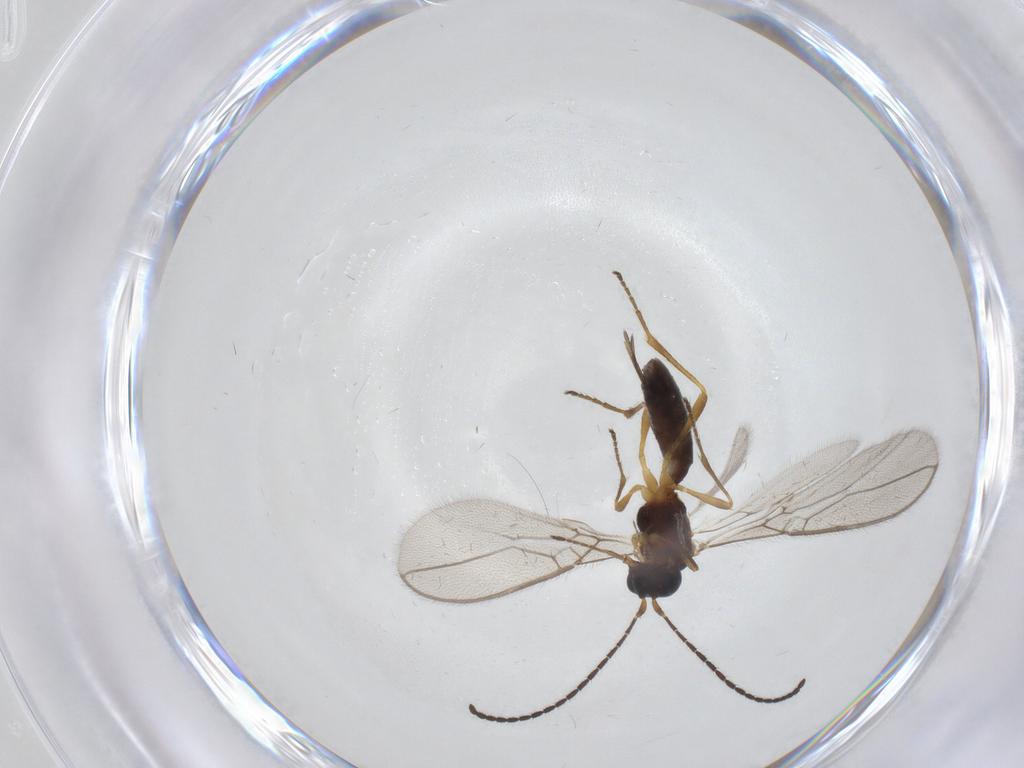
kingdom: Animalia
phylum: Arthropoda
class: Insecta
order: Hymenoptera
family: Braconidae
